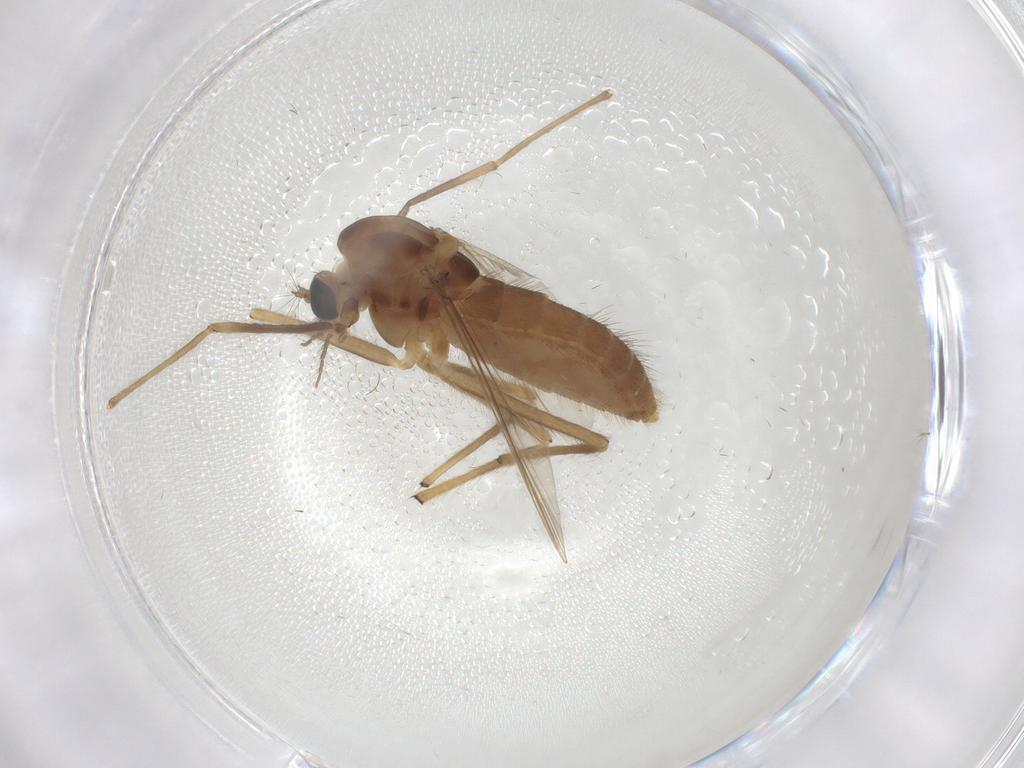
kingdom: Animalia
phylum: Arthropoda
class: Insecta
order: Diptera
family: Chironomidae
